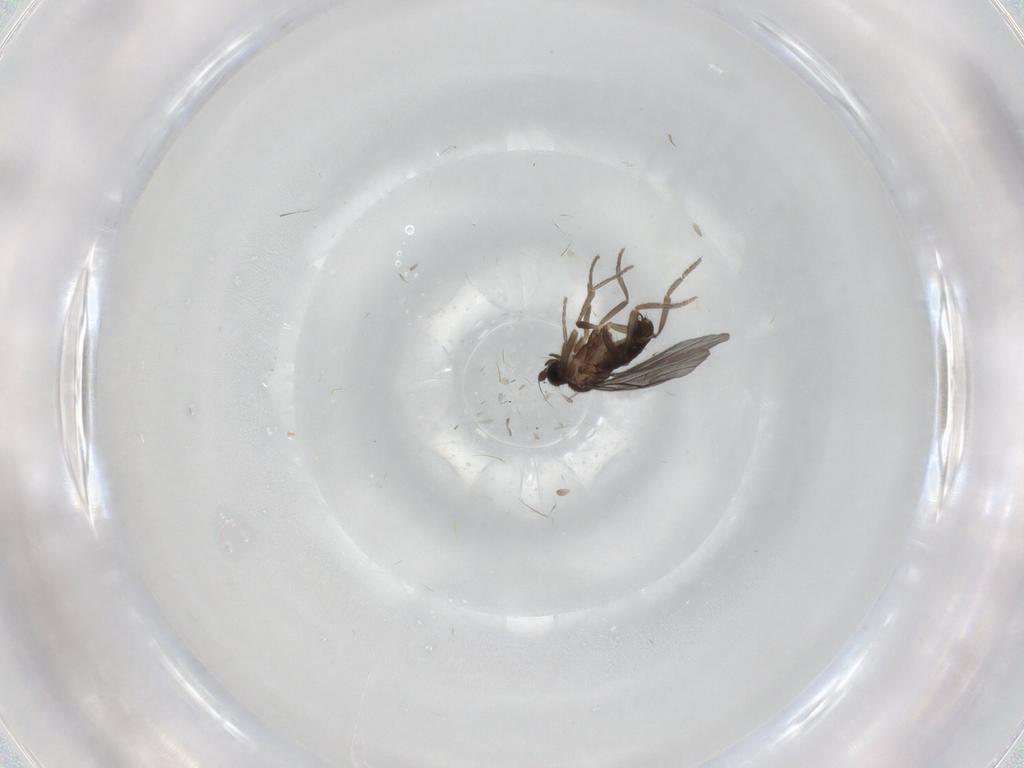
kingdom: Animalia
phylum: Arthropoda
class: Insecta
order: Diptera
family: Phoridae
